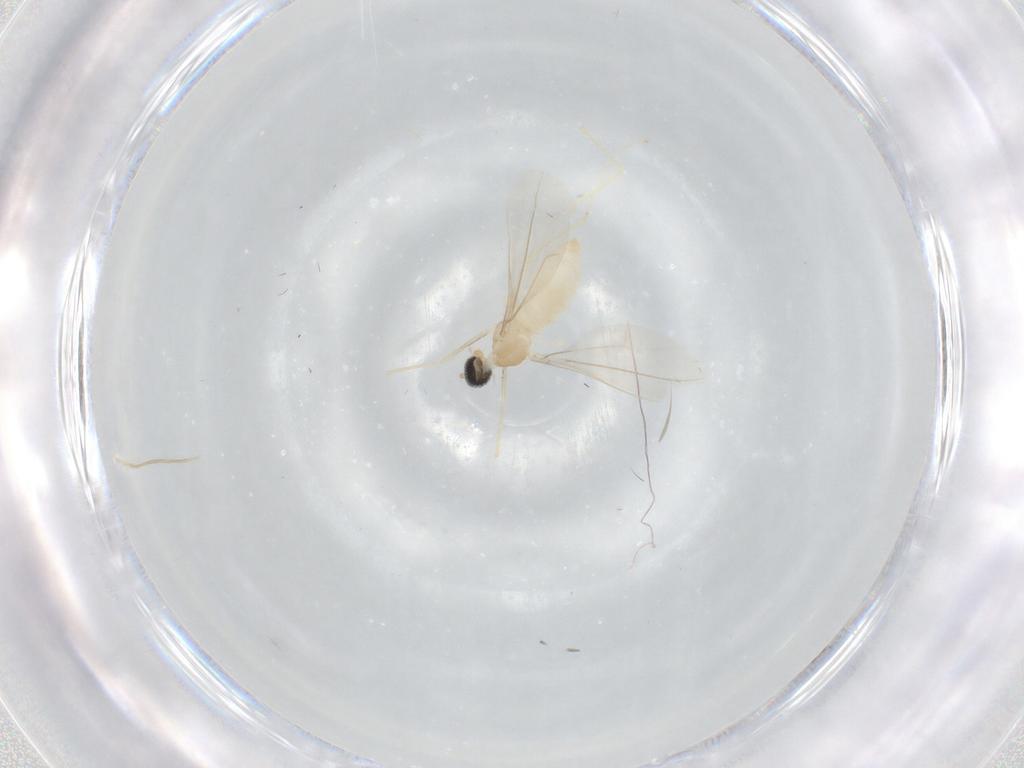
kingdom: Animalia
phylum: Arthropoda
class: Insecta
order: Diptera
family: Cecidomyiidae
